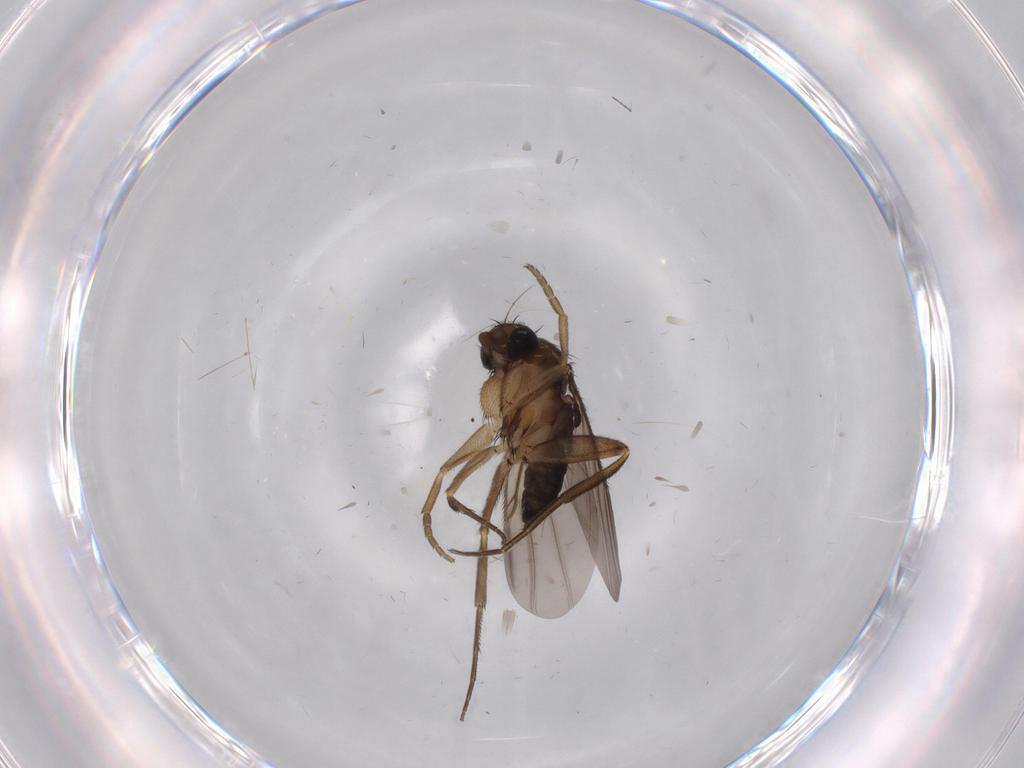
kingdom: Animalia
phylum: Arthropoda
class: Insecta
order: Diptera
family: Phoridae
